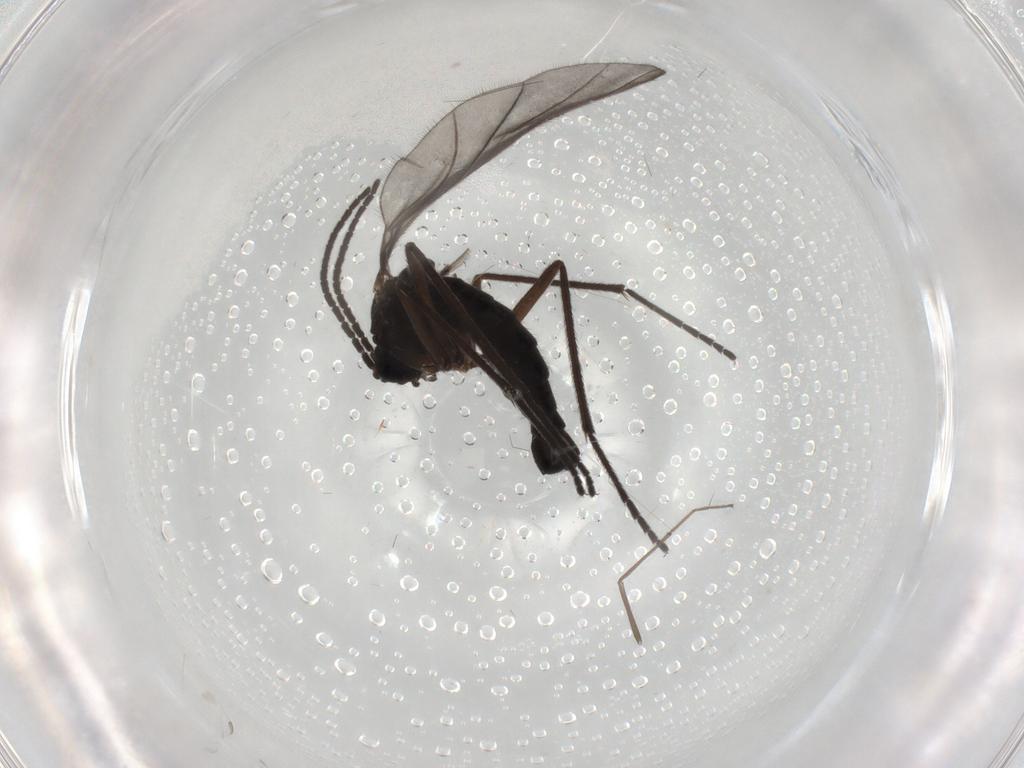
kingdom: Animalia
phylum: Arthropoda
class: Insecta
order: Diptera
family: Sciaridae
